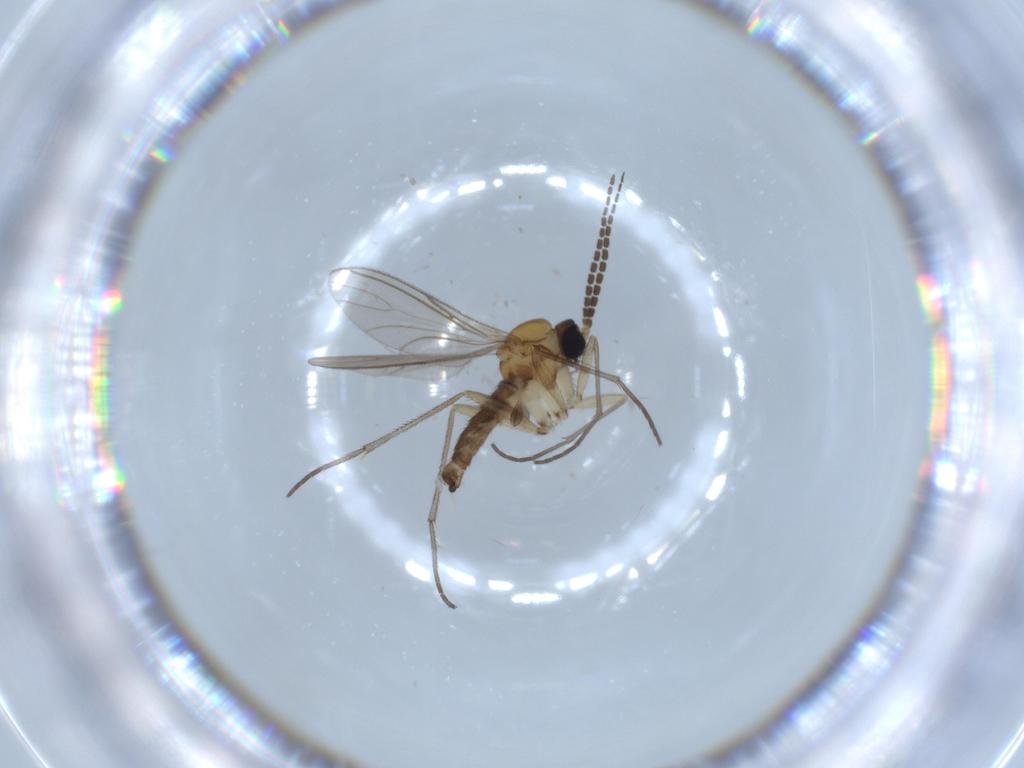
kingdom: Animalia
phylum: Arthropoda
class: Insecta
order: Diptera
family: Sciaridae
